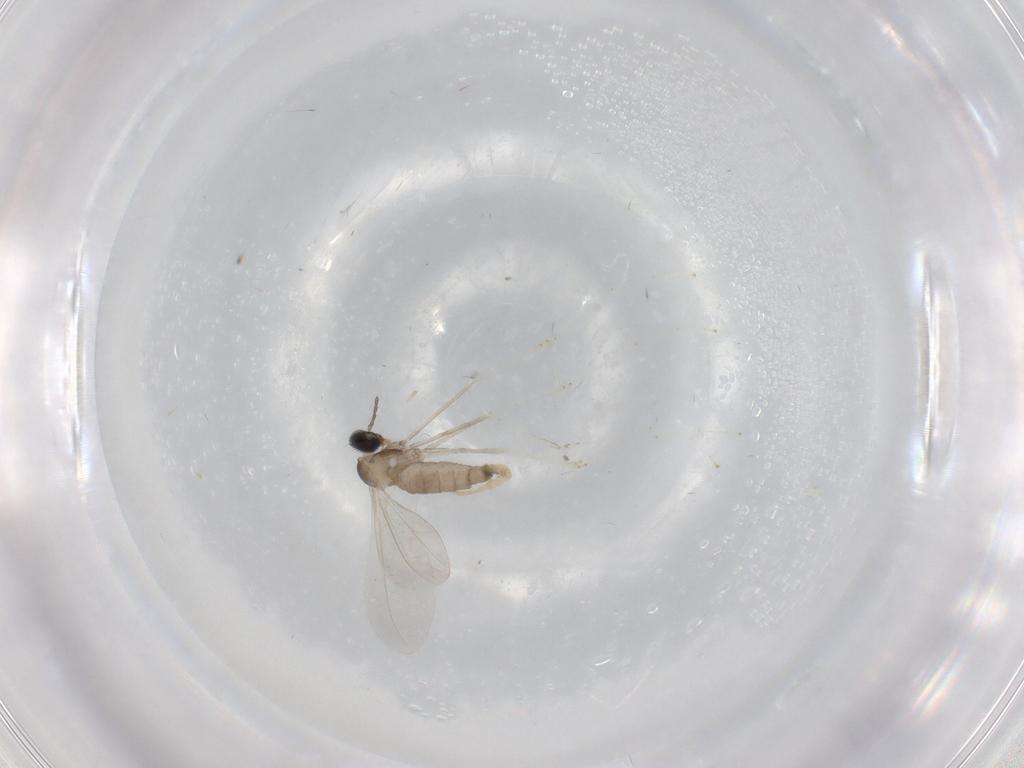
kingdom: Animalia
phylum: Arthropoda
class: Insecta
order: Diptera
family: Cecidomyiidae
